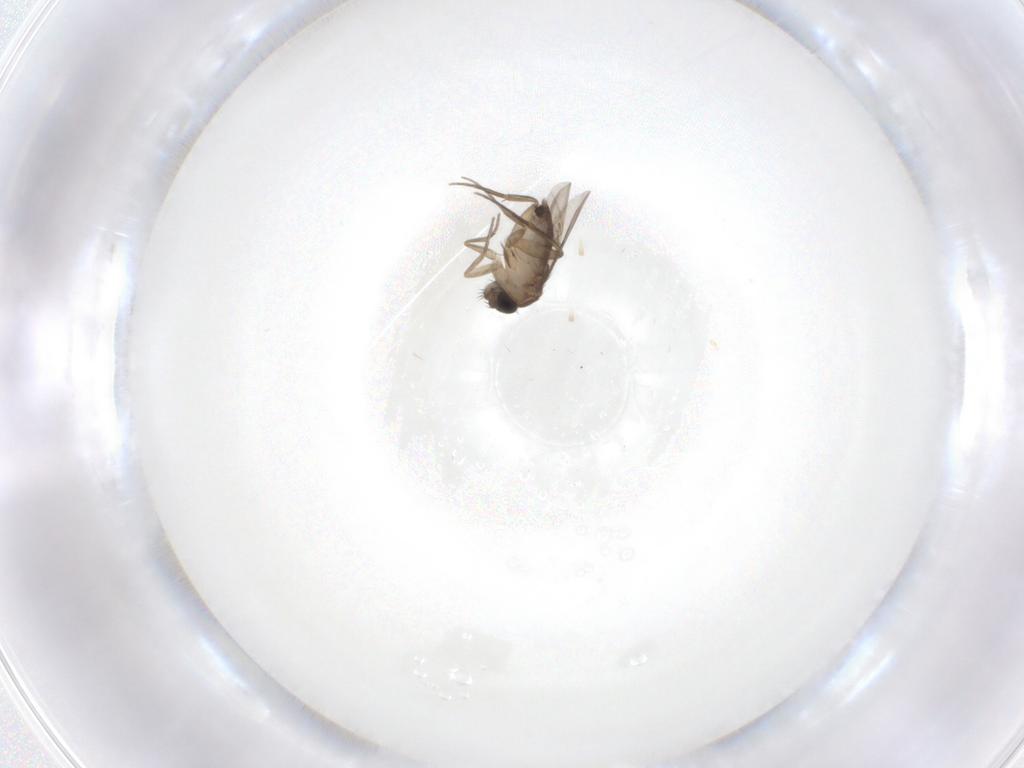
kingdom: Animalia
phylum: Arthropoda
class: Insecta
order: Diptera
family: Phoridae
